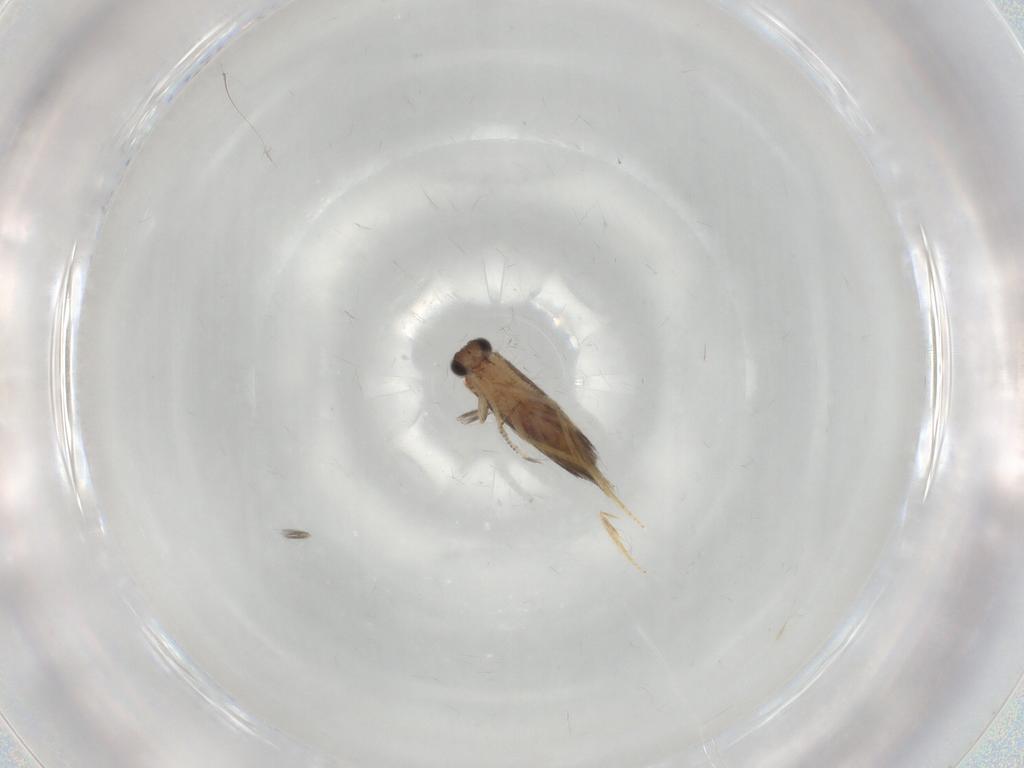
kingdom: Animalia
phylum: Arthropoda
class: Insecta
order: Trichoptera
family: Hydroptilidae
